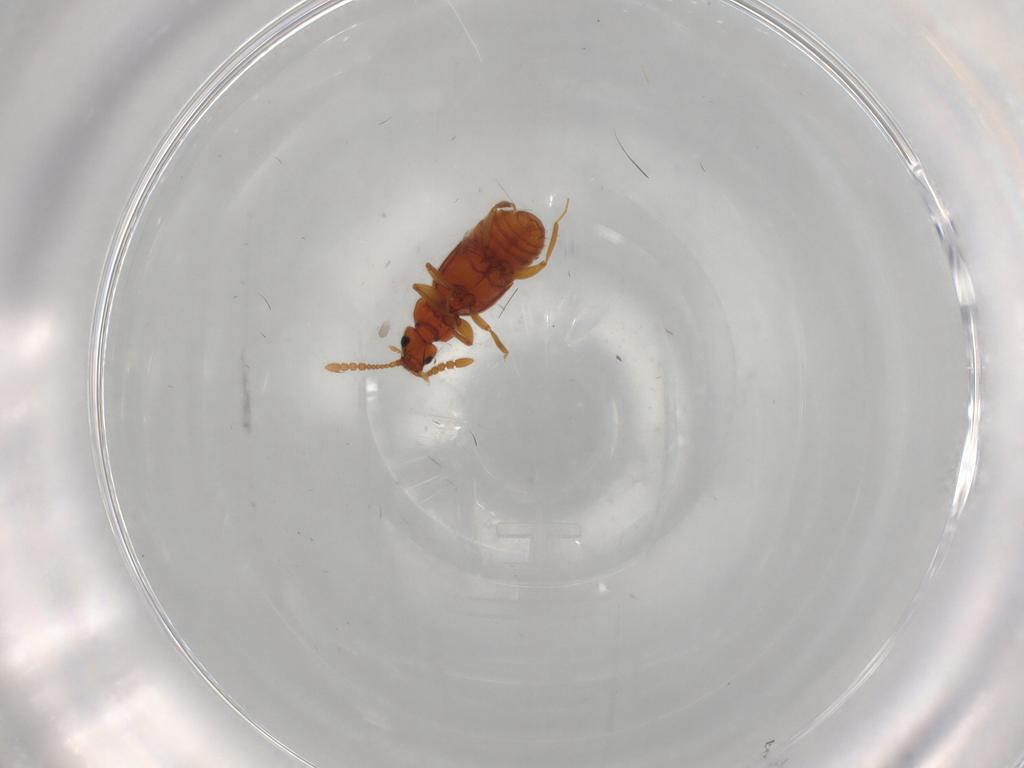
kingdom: Animalia
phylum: Arthropoda
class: Insecta
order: Coleoptera
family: Staphylinidae
